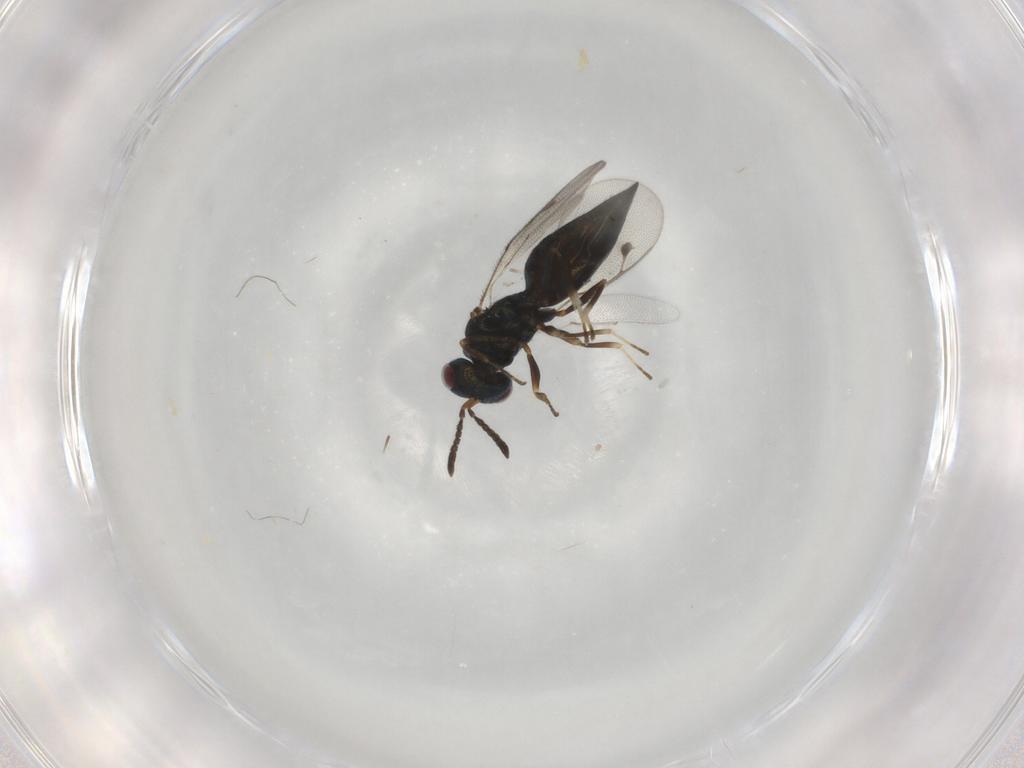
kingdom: Animalia
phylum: Arthropoda
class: Insecta
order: Hymenoptera
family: Pteromalidae
